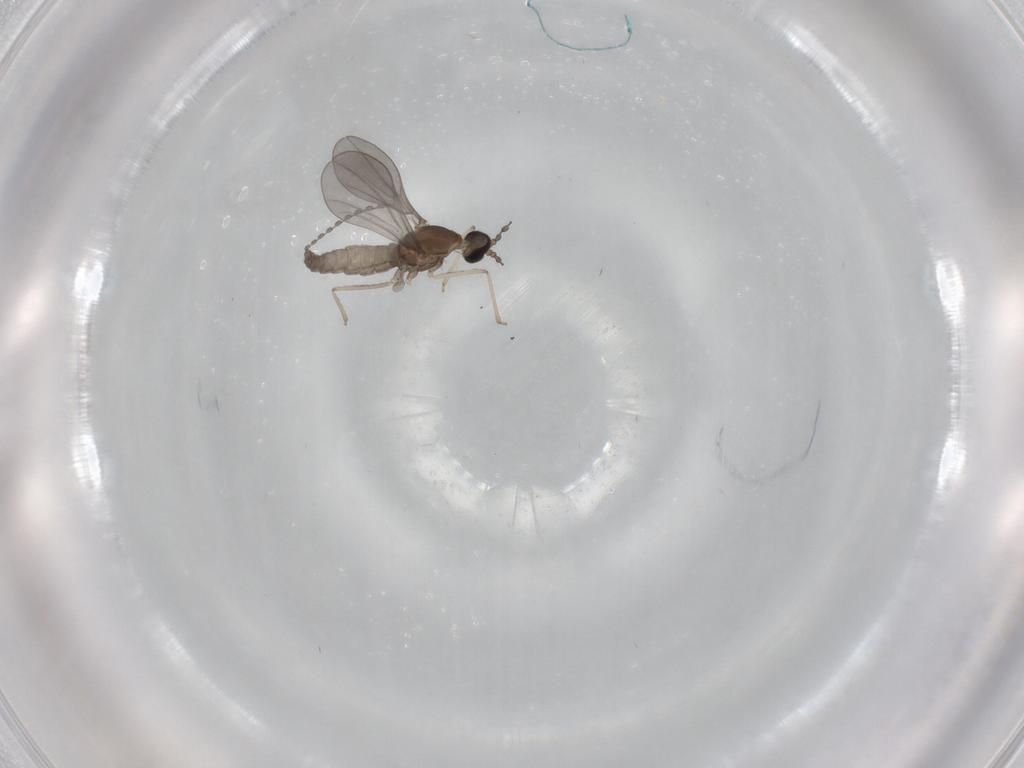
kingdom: Animalia
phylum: Arthropoda
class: Insecta
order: Diptera
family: Cecidomyiidae
